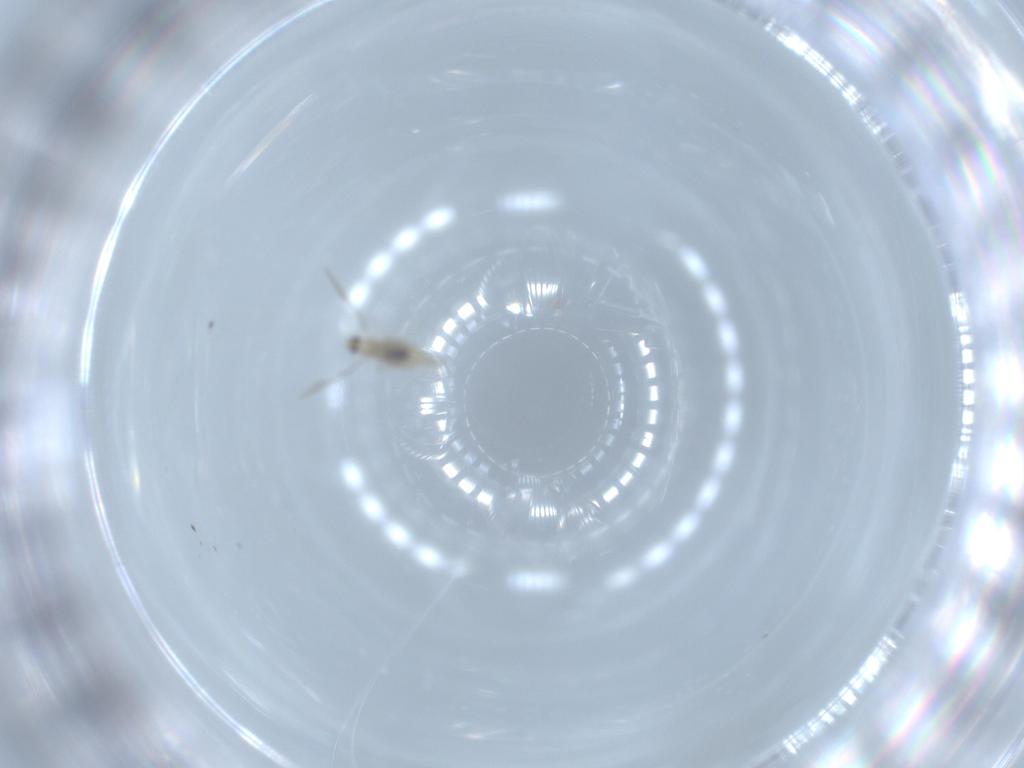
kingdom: Animalia
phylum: Arthropoda
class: Insecta
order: Diptera
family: Cecidomyiidae
